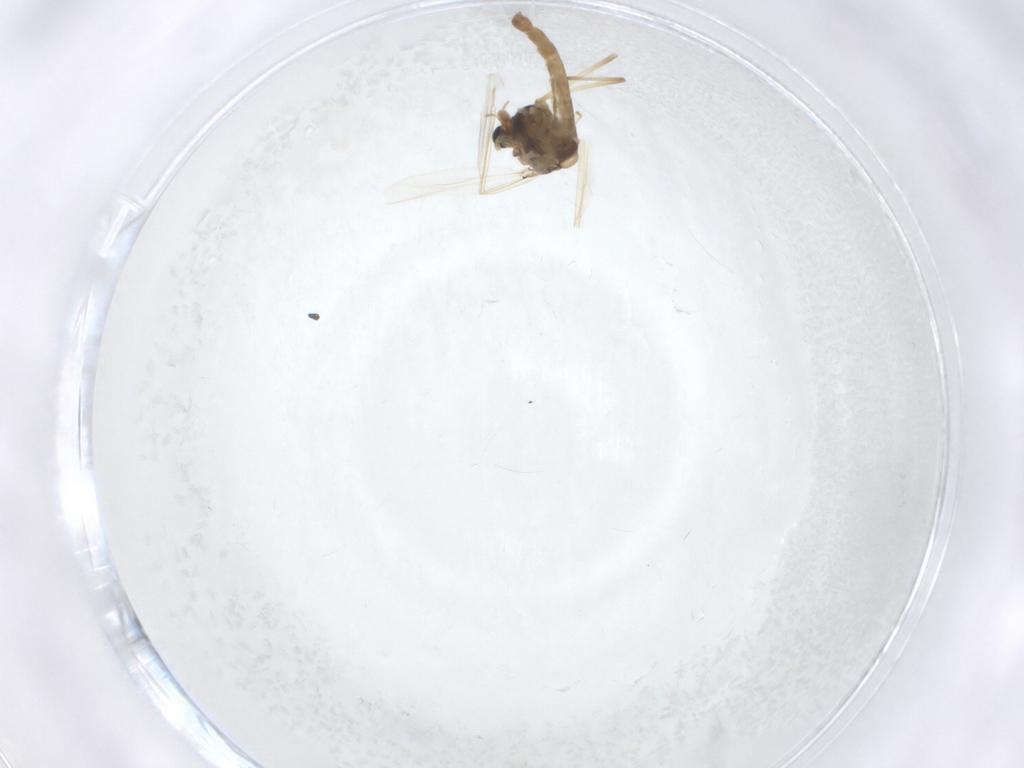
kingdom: Animalia
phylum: Arthropoda
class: Insecta
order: Diptera
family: Chironomidae
